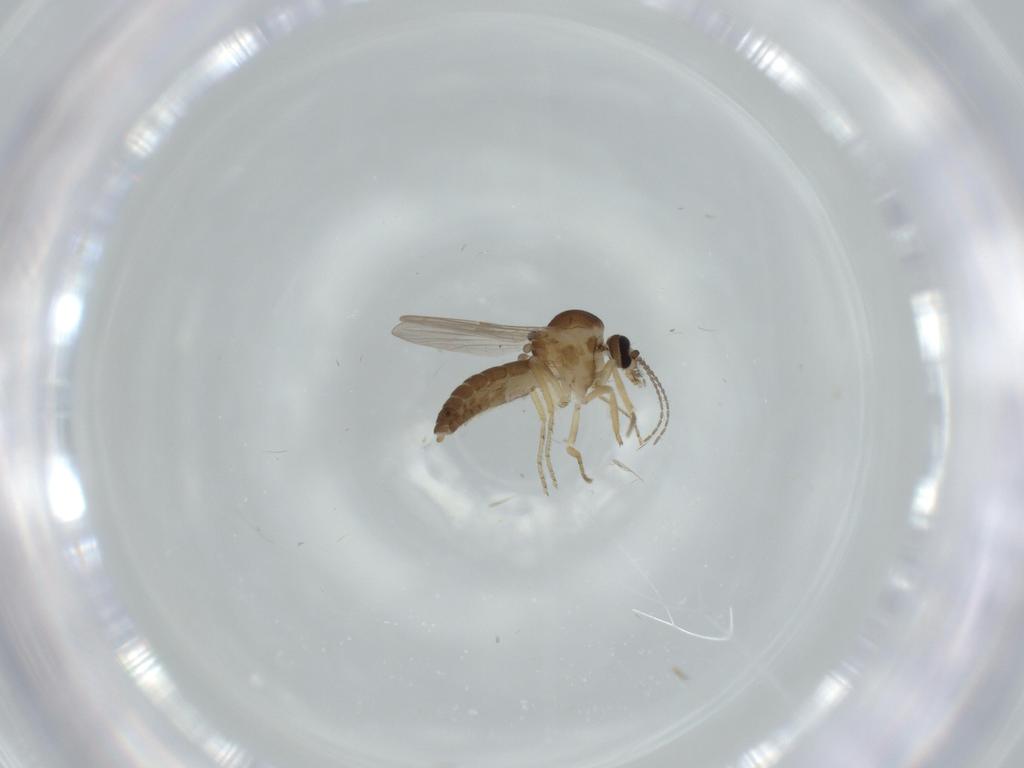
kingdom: Animalia
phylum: Arthropoda
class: Insecta
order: Diptera
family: Ceratopogonidae
